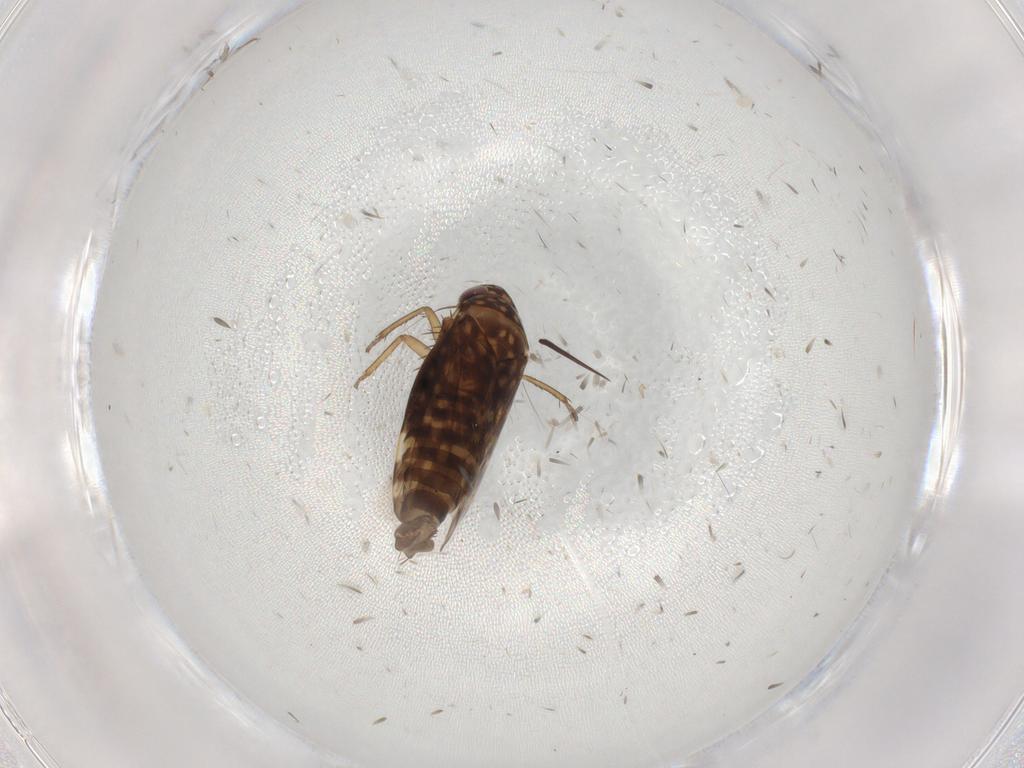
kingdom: Animalia
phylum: Arthropoda
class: Insecta
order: Hemiptera
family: Cicadellidae
